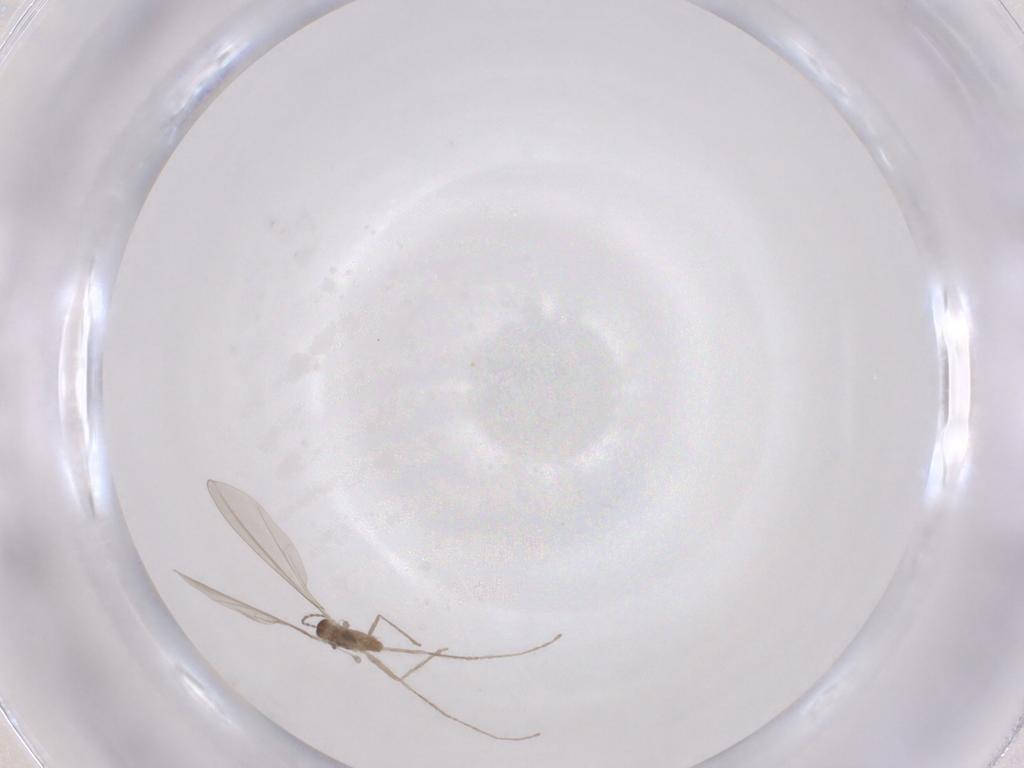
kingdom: Animalia
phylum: Arthropoda
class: Insecta
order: Diptera
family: Cecidomyiidae
